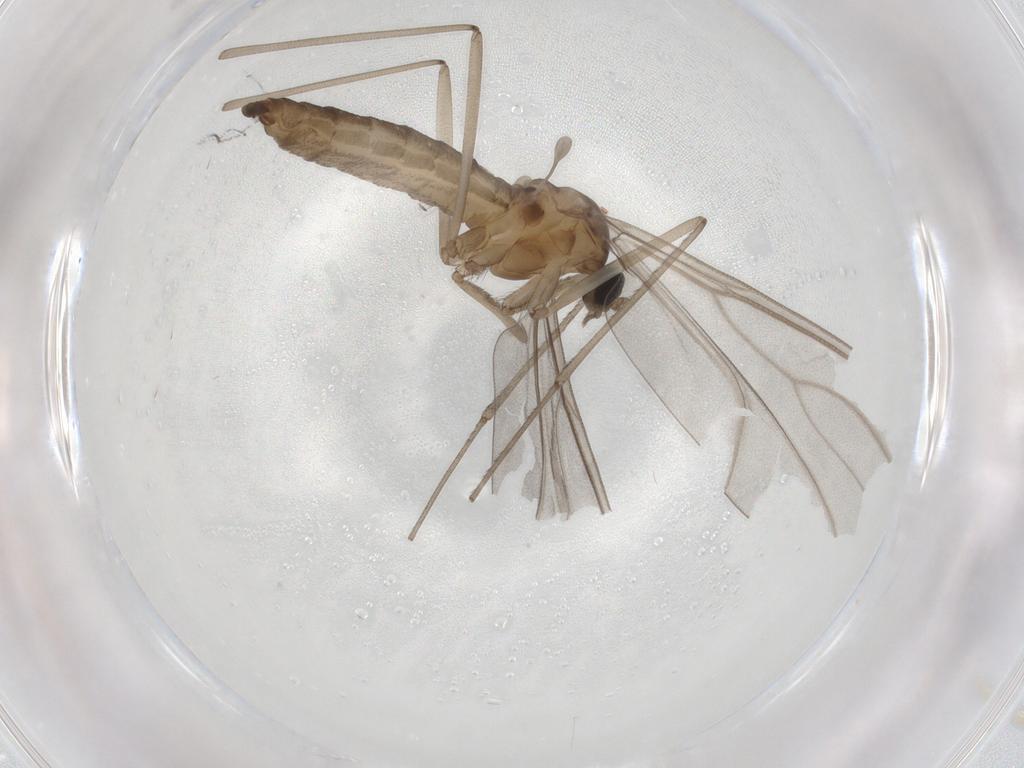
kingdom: Animalia
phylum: Arthropoda
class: Insecta
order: Diptera
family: Cecidomyiidae
